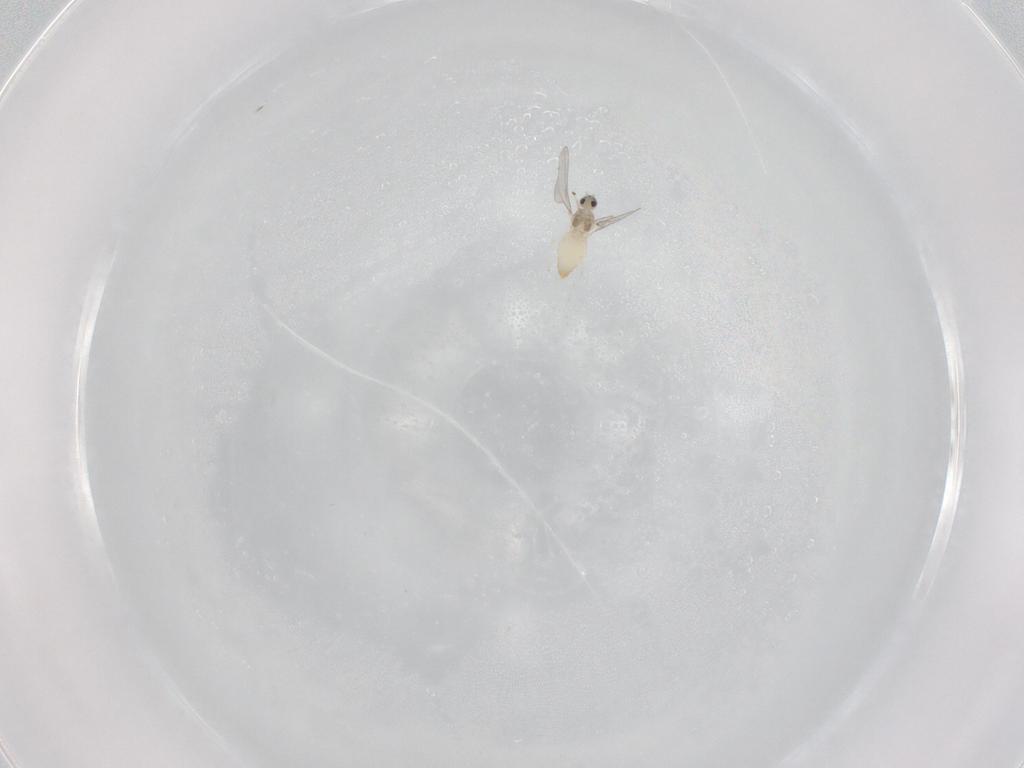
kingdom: Animalia
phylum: Arthropoda
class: Insecta
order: Diptera
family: Cecidomyiidae
